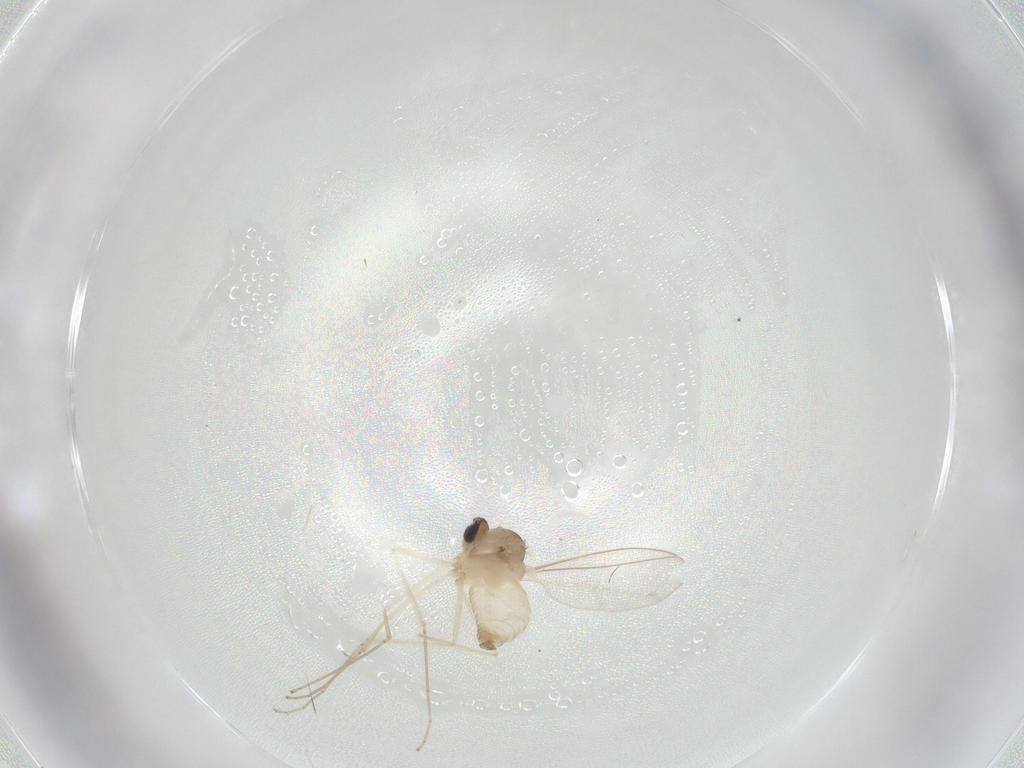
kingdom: Animalia
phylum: Arthropoda
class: Insecta
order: Diptera
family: Cecidomyiidae
